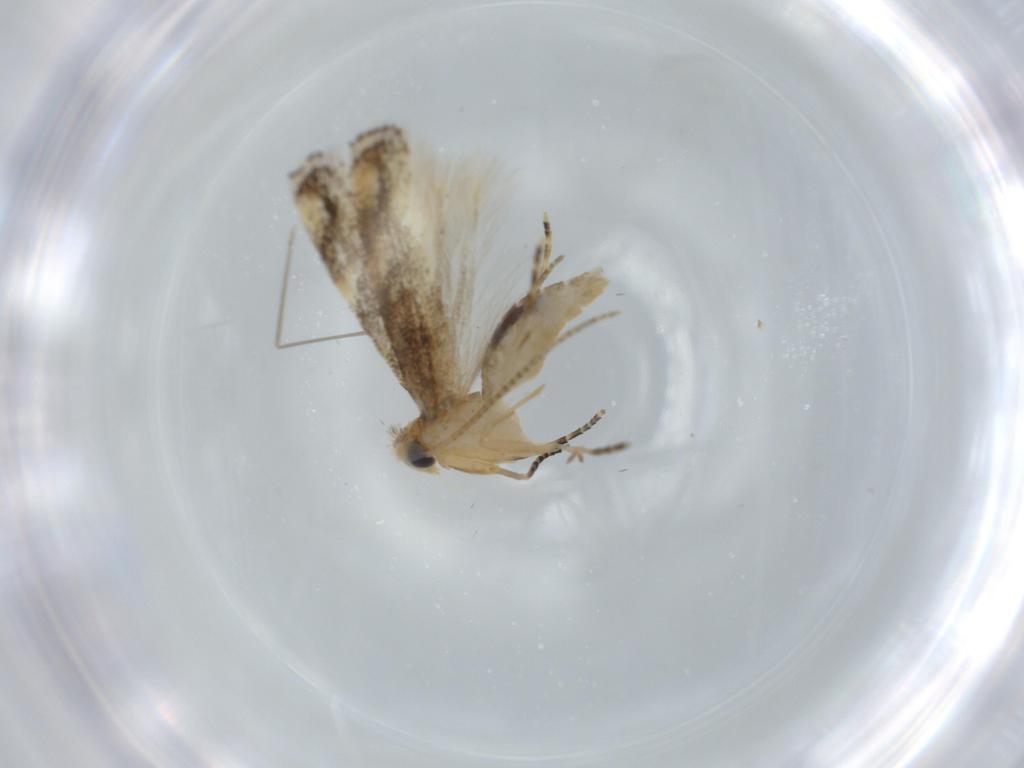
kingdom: Animalia
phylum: Arthropoda
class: Insecta
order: Lepidoptera
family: Bucculatricidae
